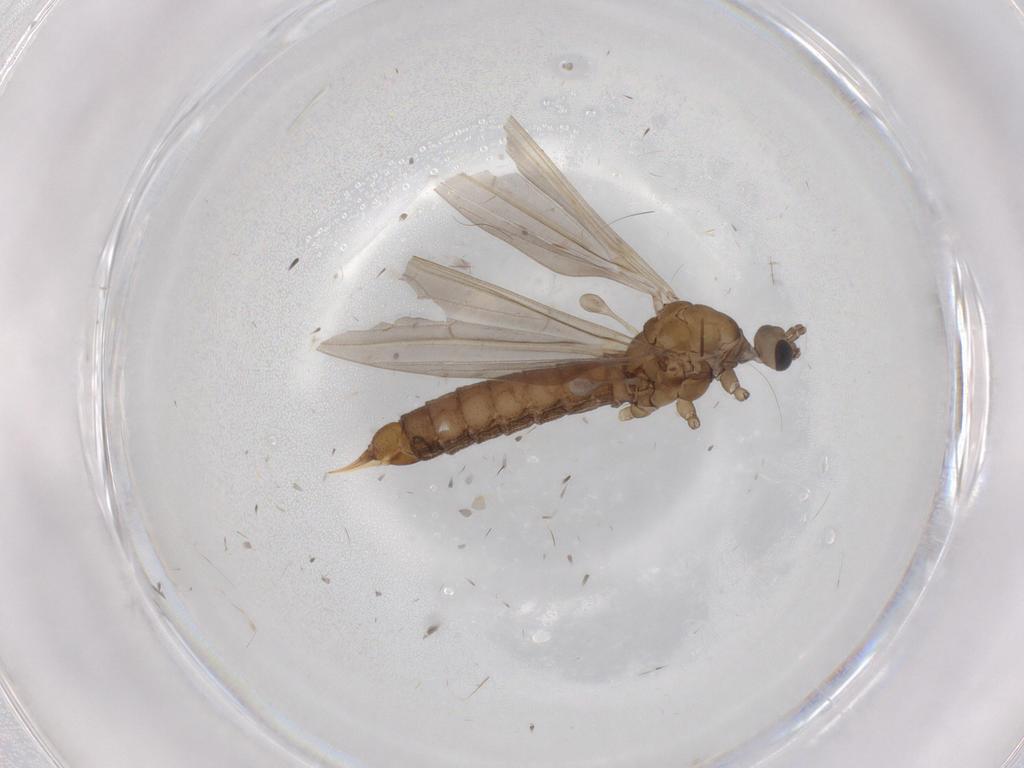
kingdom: Animalia
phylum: Arthropoda
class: Insecta
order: Diptera
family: Limoniidae
